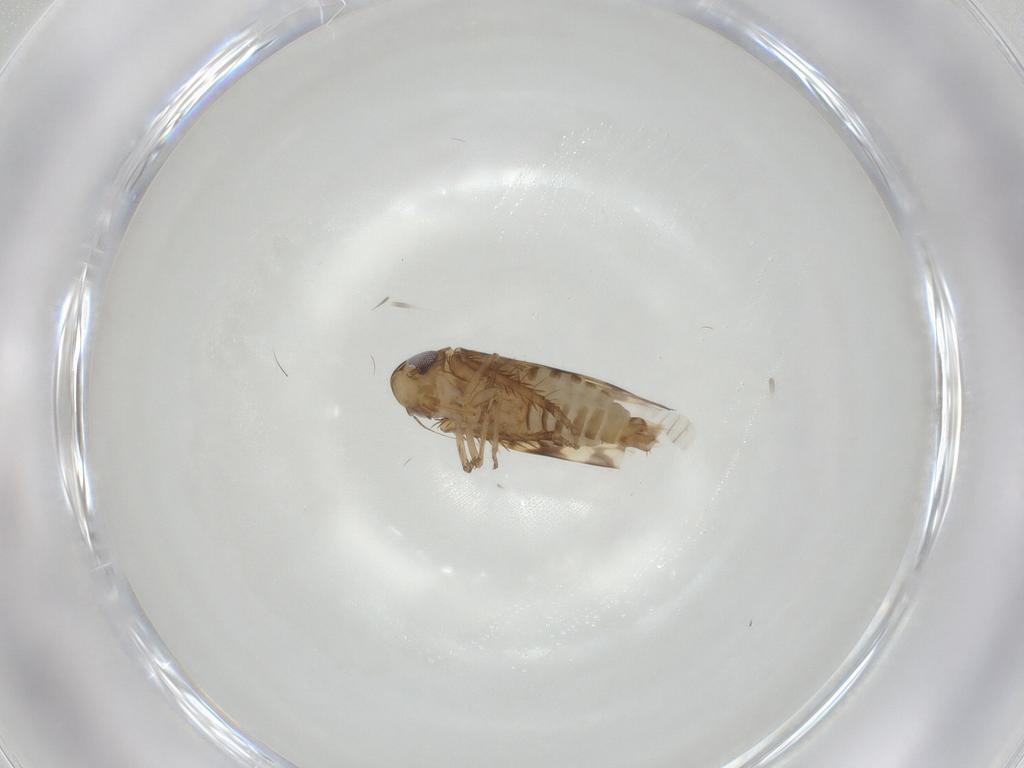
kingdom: Animalia
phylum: Arthropoda
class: Insecta
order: Hemiptera
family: Cicadellidae
